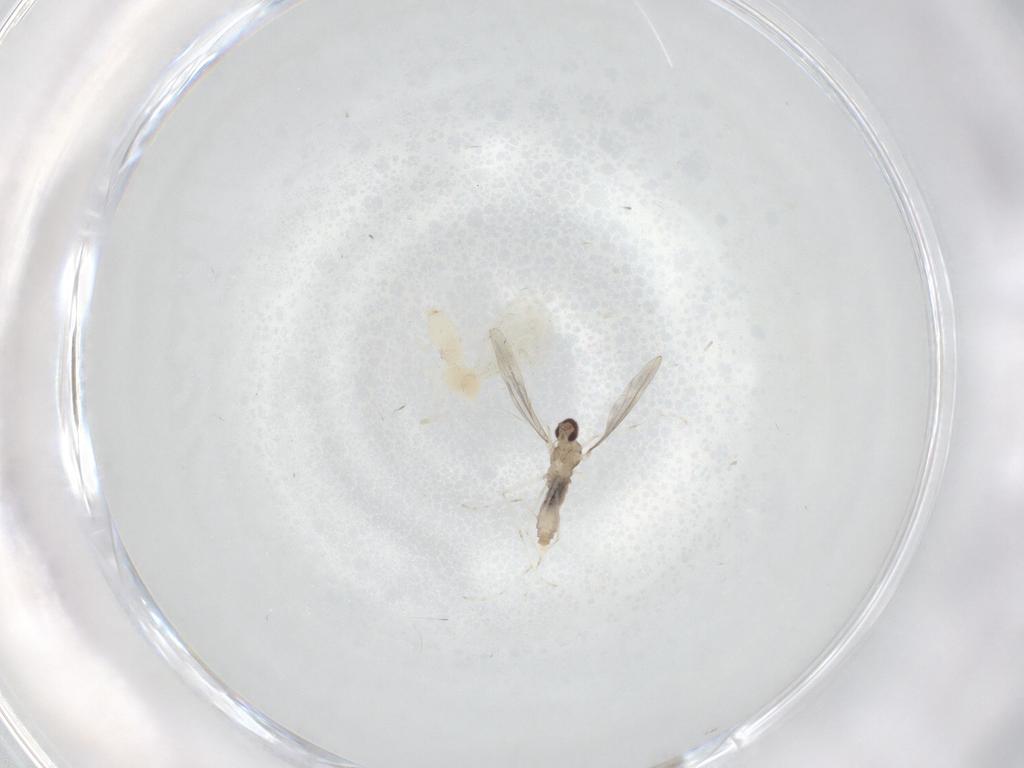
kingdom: Animalia
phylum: Arthropoda
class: Insecta
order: Diptera
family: Cecidomyiidae
